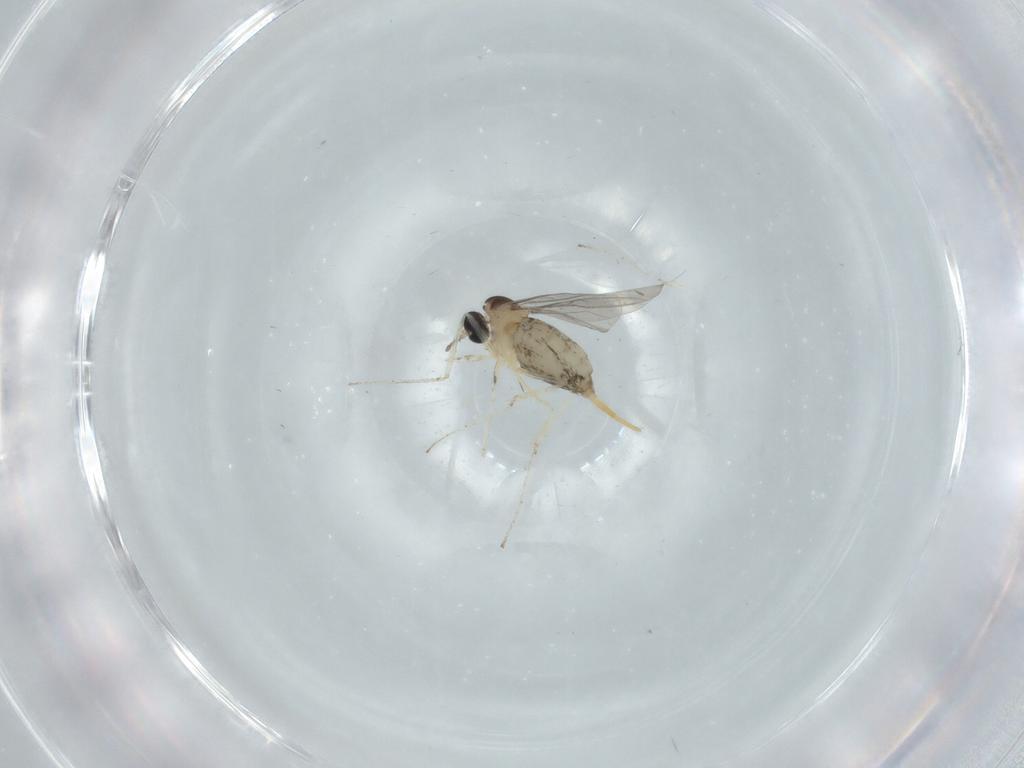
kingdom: Animalia
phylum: Arthropoda
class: Insecta
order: Diptera
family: Cecidomyiidae
